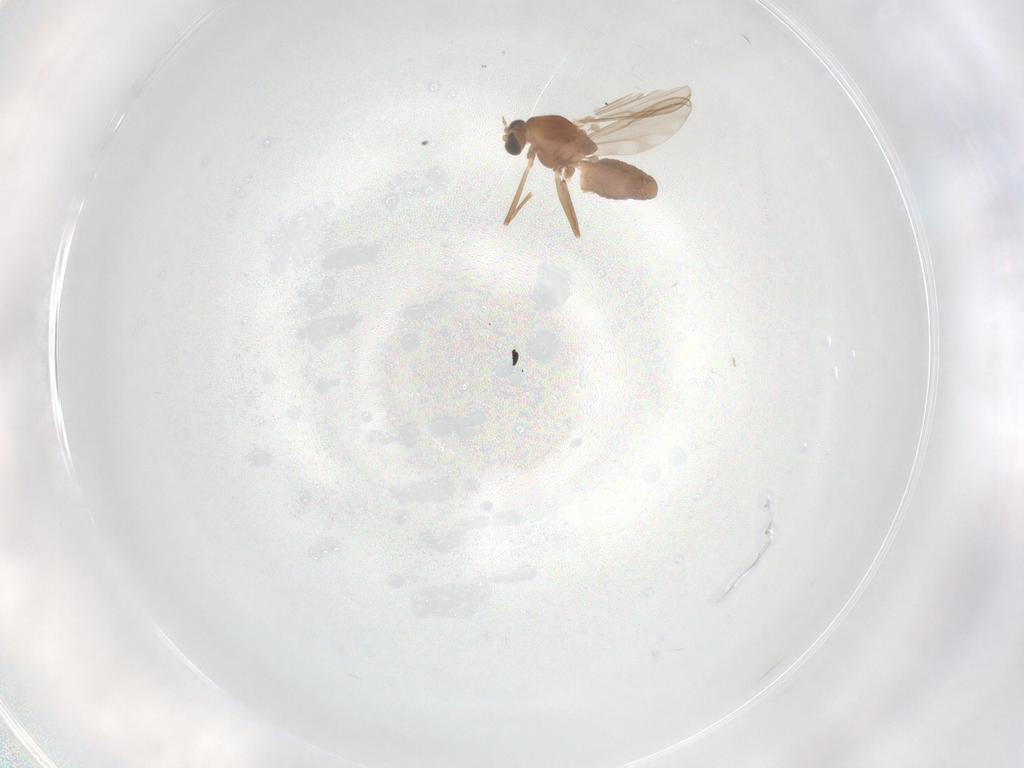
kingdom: Animalia
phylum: Arthropoda
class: Insecta
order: Diptera
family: Chironomidae
